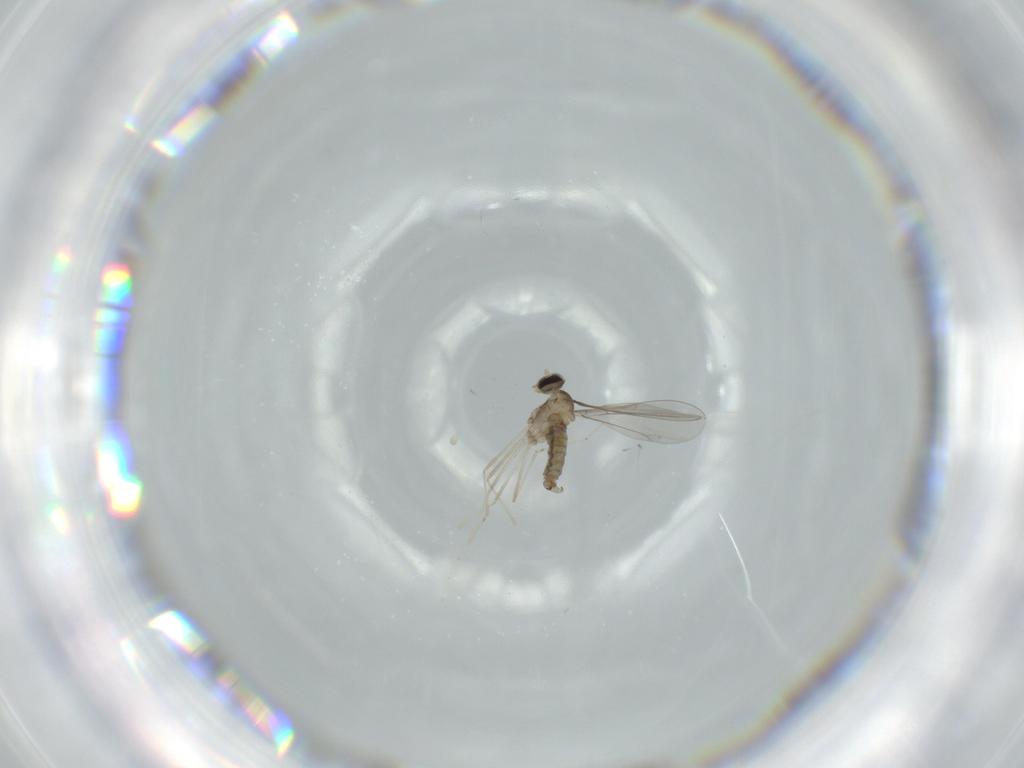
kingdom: Animalia
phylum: Arthropoda
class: Insecta
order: Diptera
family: Cecidomyiidae
